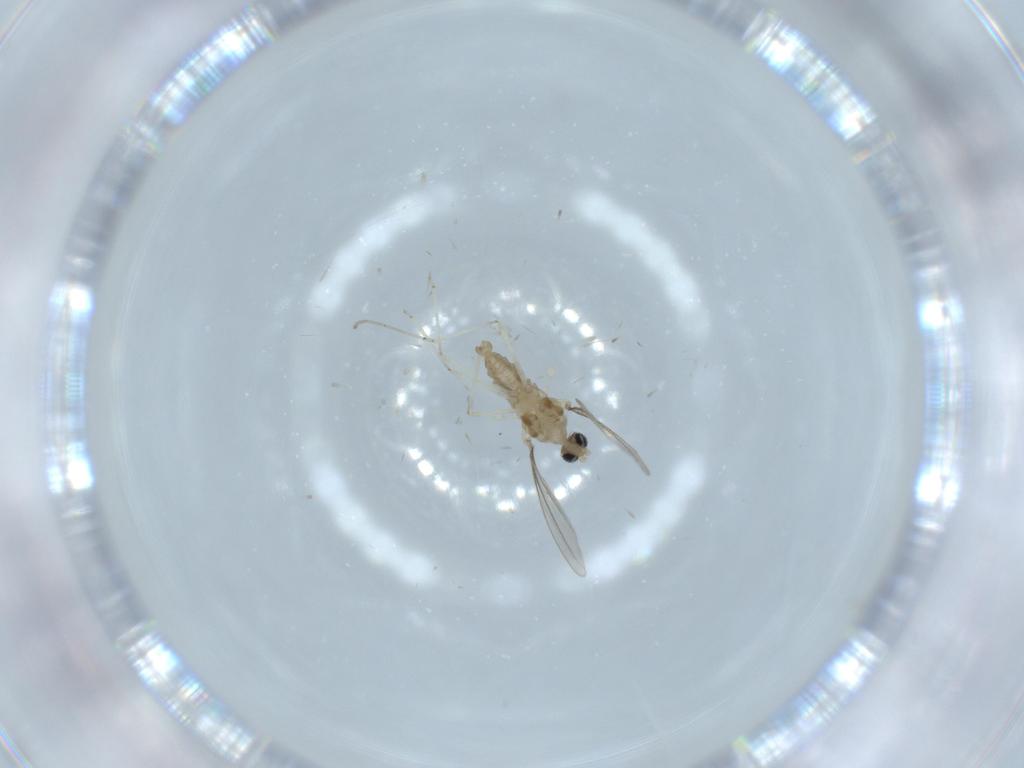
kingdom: Animalia
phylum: Arthropoda
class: Insecta
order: Diptera
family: Cecidomyiidae
